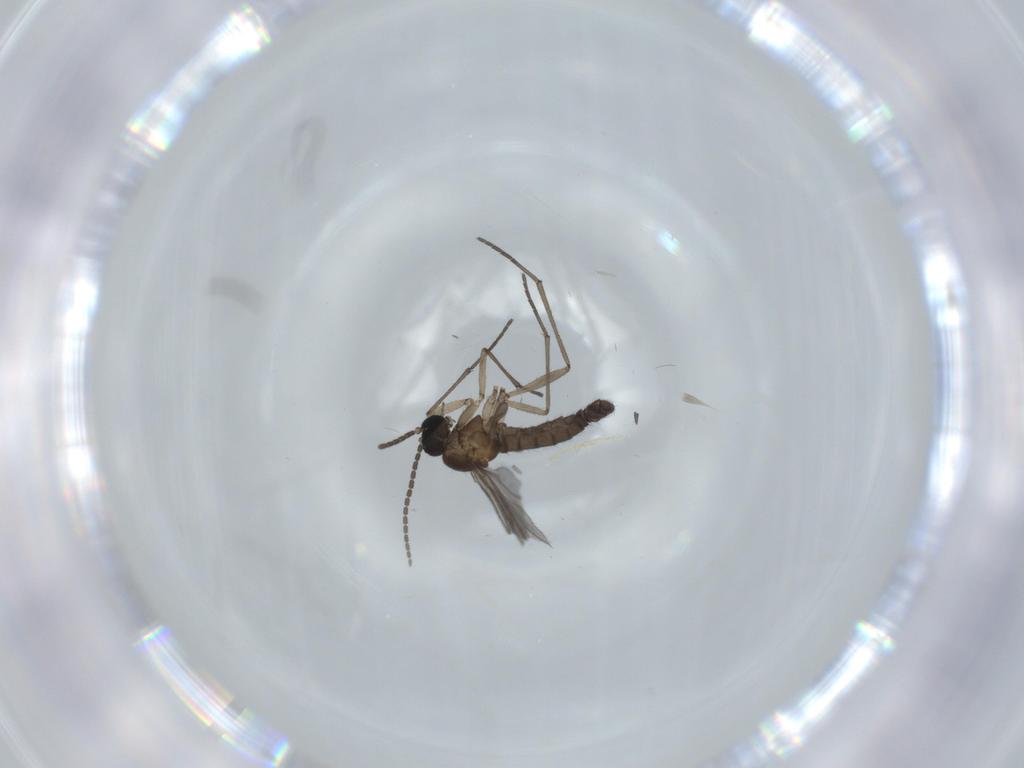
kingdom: Animalia
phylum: Arthropoda
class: Insecta
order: Diptera
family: Sciaridae
